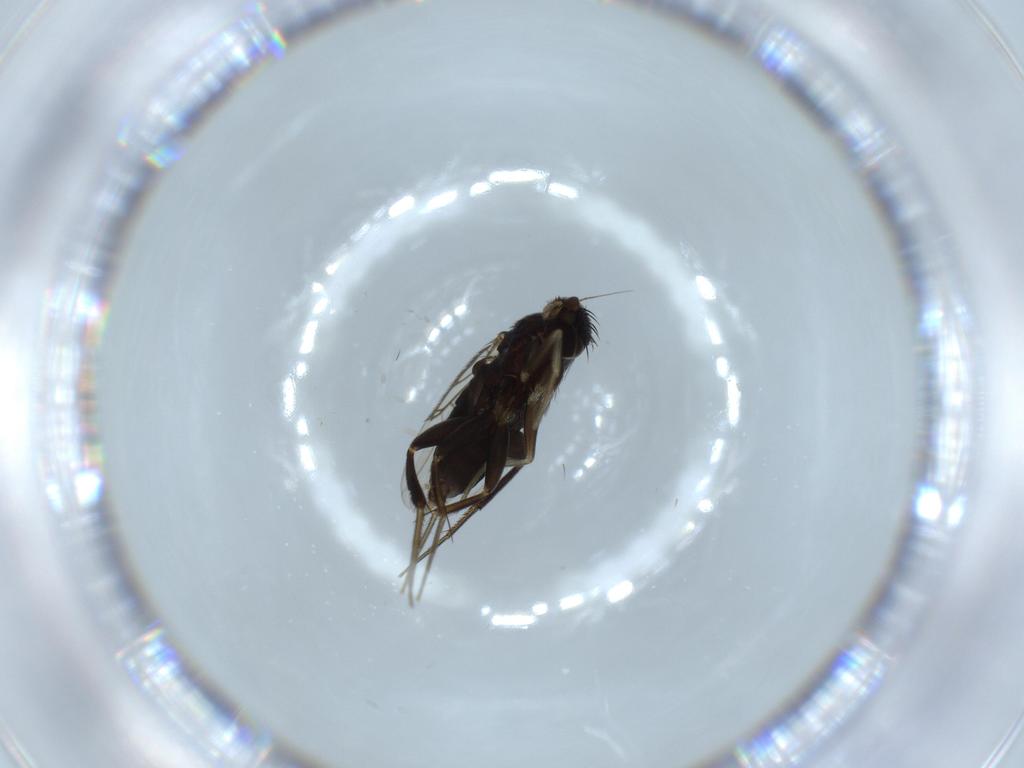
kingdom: Animalia
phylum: Arthropoda
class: Insecta
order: Diptera
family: Phoridae
